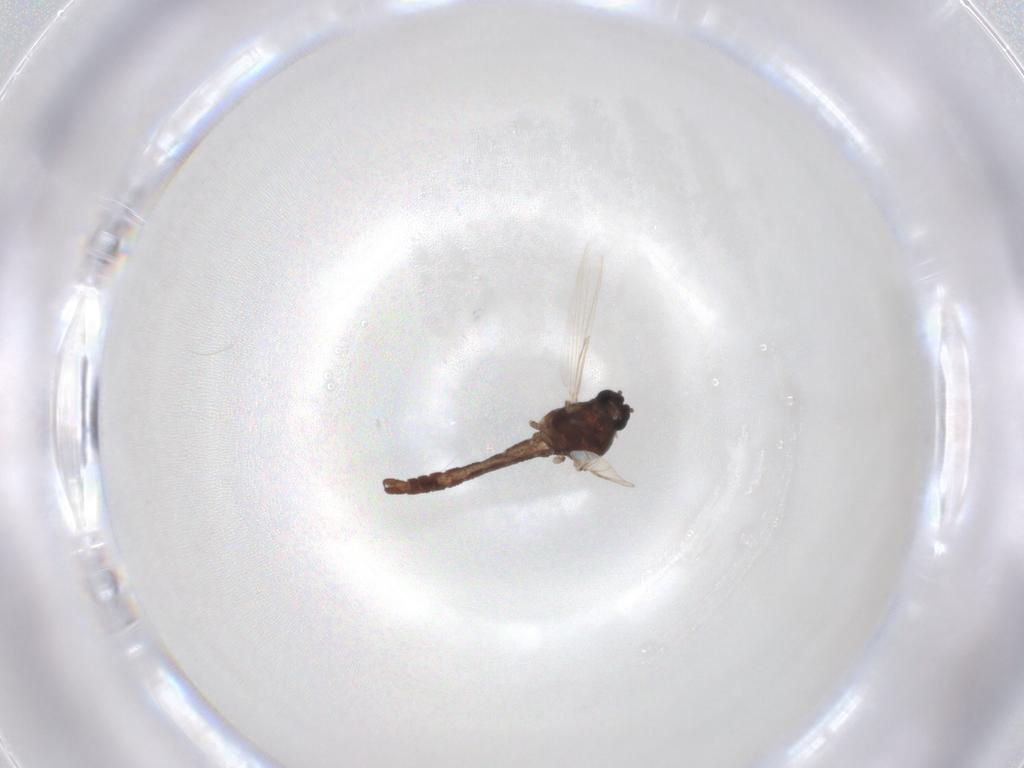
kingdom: Animalia
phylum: Arthropoda
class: Insecta
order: Diptera
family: Ceratopogonidae
